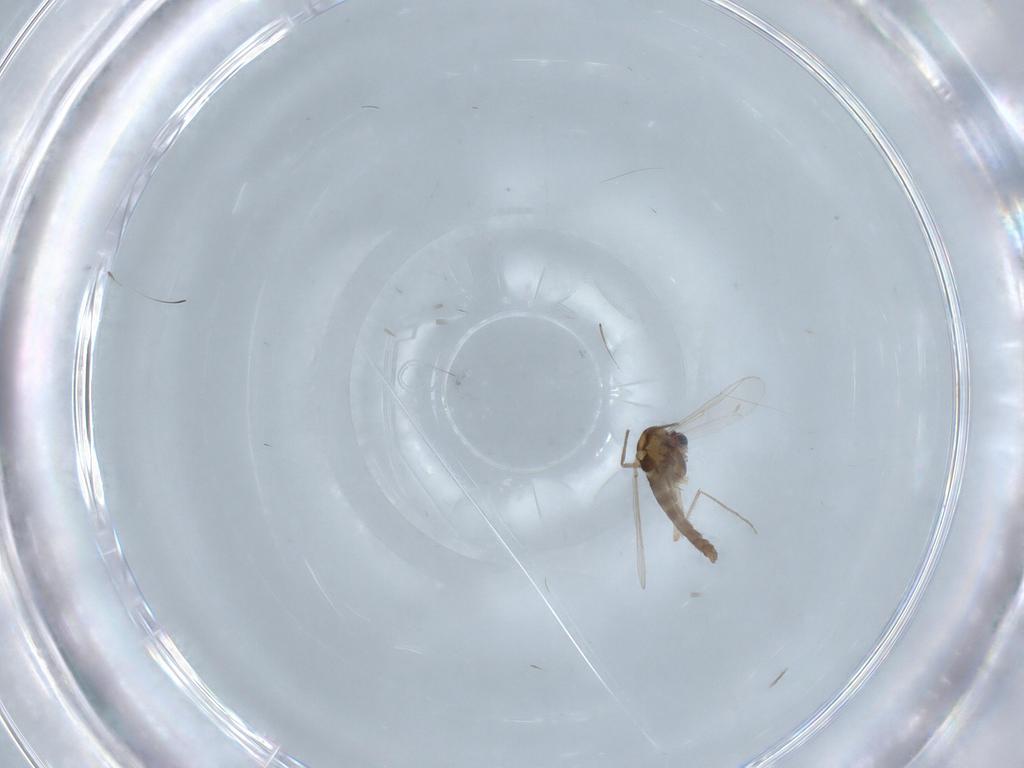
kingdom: Animalia
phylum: Arthropoda
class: Insecta
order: Diptera
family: Chironomidae
